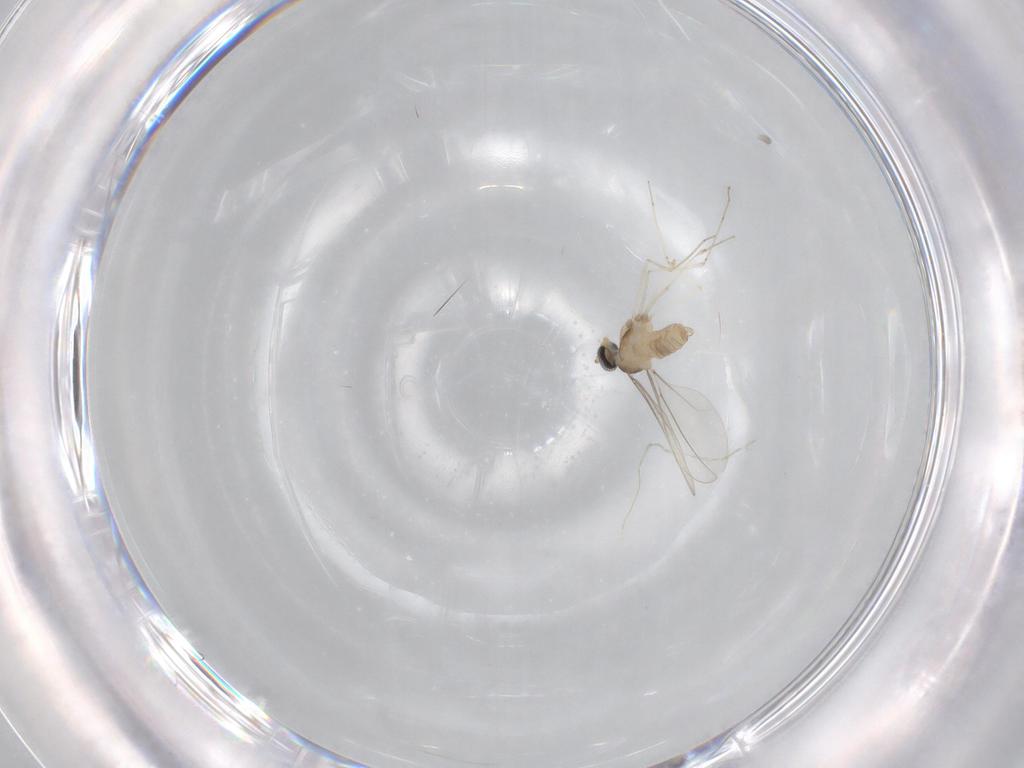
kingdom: Animalia
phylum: Arthropoda
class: Insecta
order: Diptera
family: Cecidomyiidae
